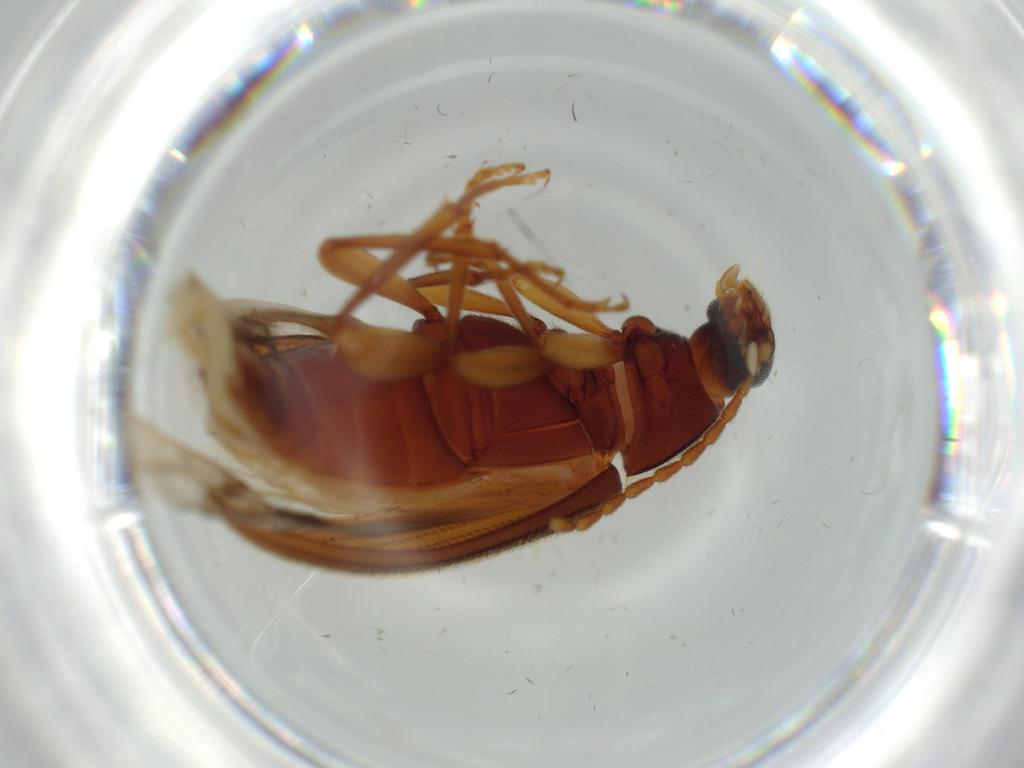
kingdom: Animalia
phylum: Arthropoda
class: Insecta
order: Coleoptera
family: Tenebrionidae
